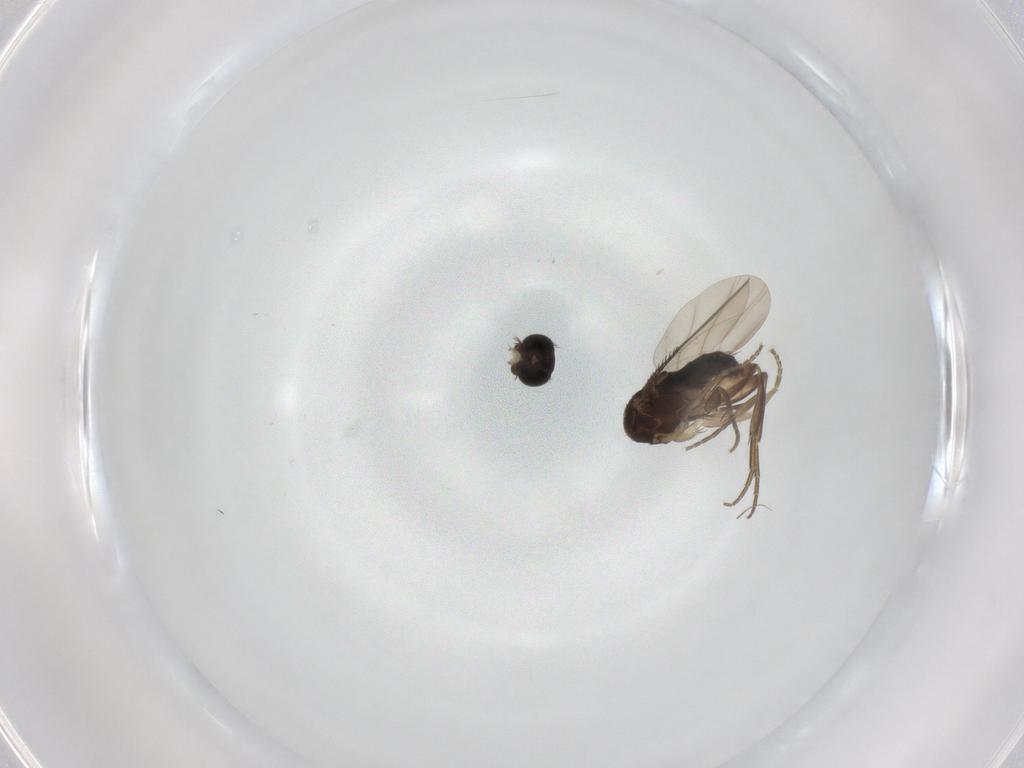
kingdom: Animalia
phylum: Arthropoda
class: Insecta
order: Diptera
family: Phoridae
